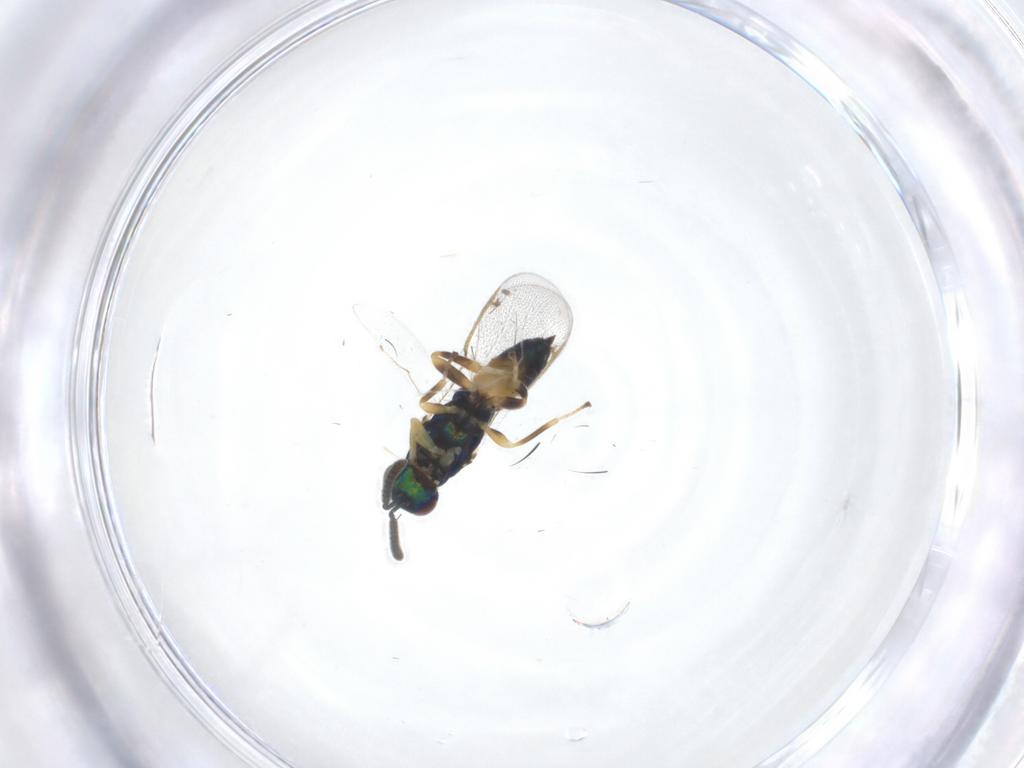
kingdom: Animalia
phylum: Arthropoda
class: Insecta
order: Hymenoptera
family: Torymidae
